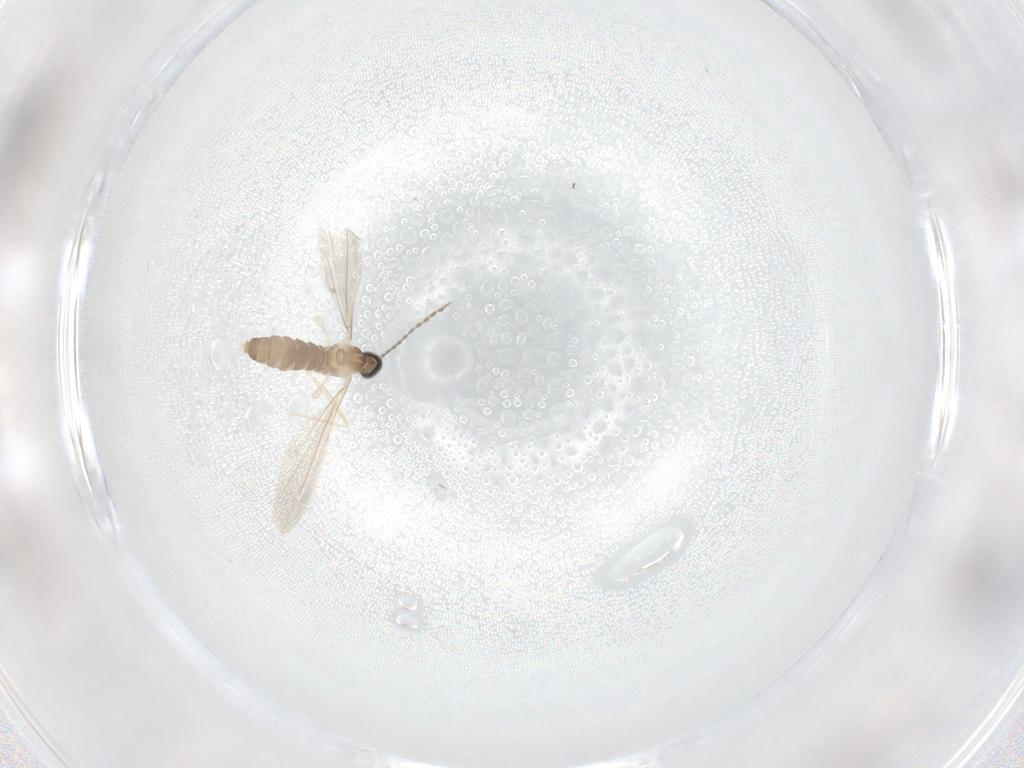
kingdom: Animalia
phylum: Arthropoda
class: Insecta
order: Diptera
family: Cecidomyiidae
